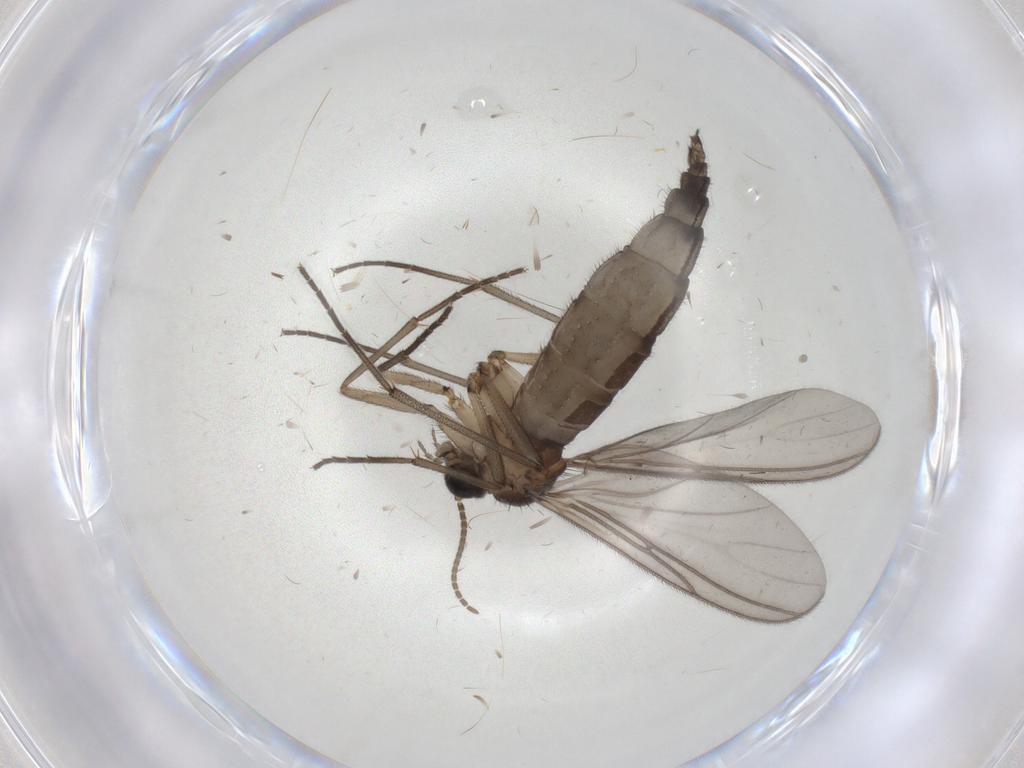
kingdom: Animalia
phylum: Arthropoda
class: Insecta
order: Diptera
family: Sciaridae
